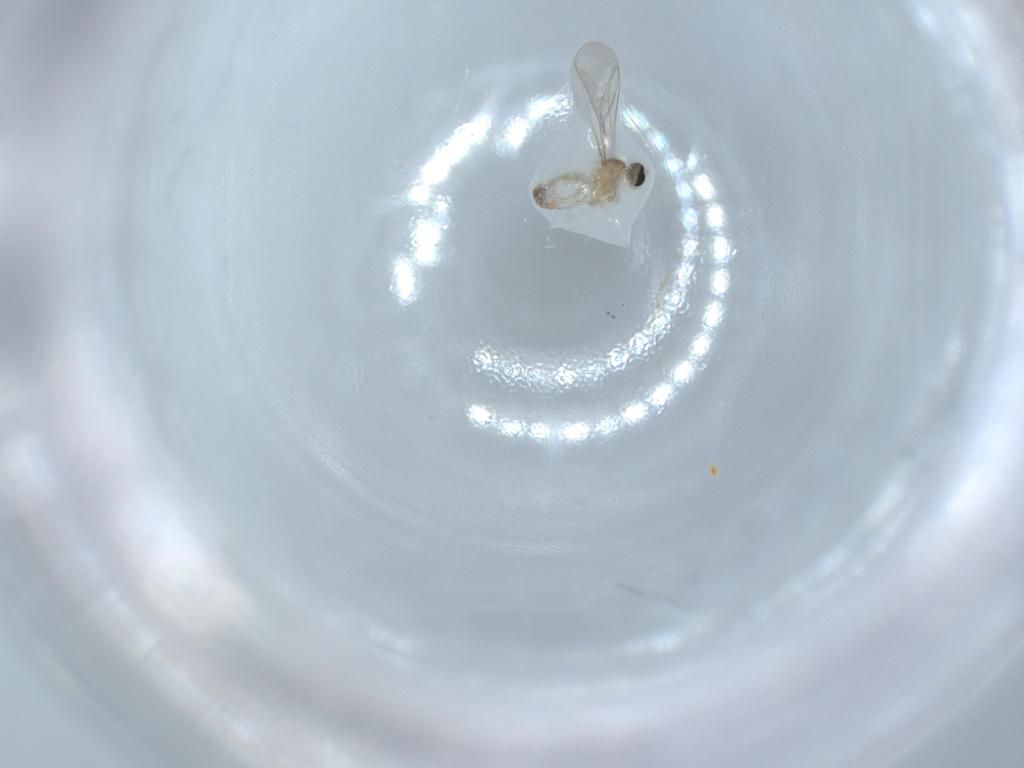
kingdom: Animalia
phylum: Arthropoda
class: Insecta
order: Diptera
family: Cecidomyiidae
